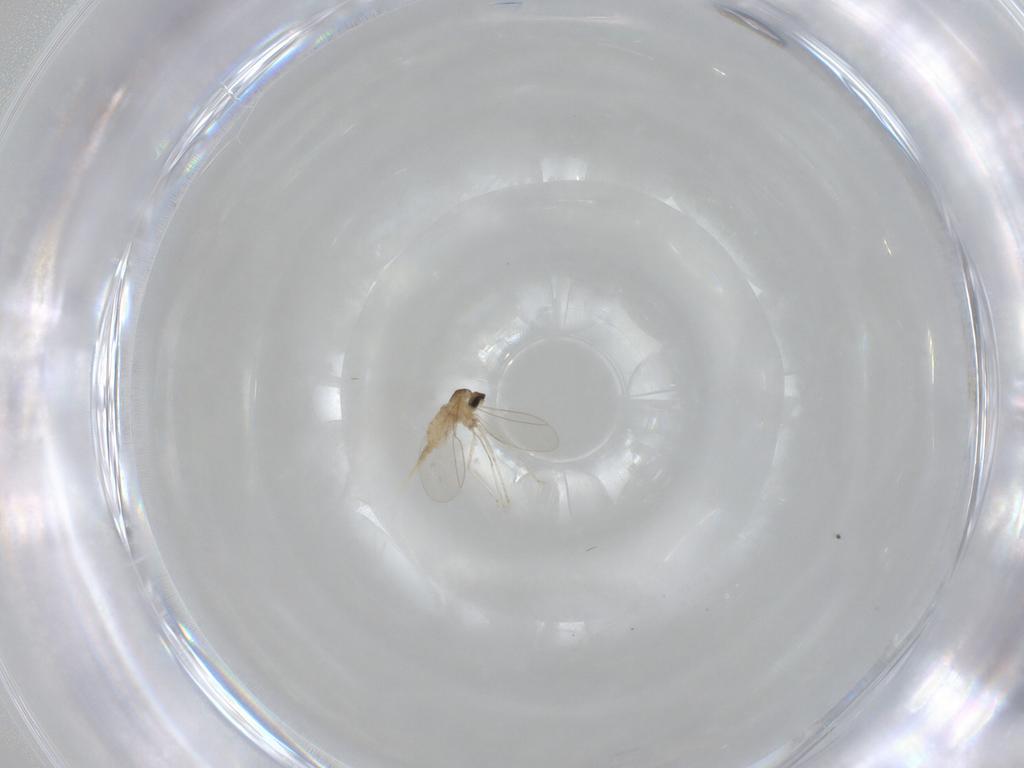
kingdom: Animalia
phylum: Arthropoda
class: Insecta
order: Diptera
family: Cecidomyiidae
